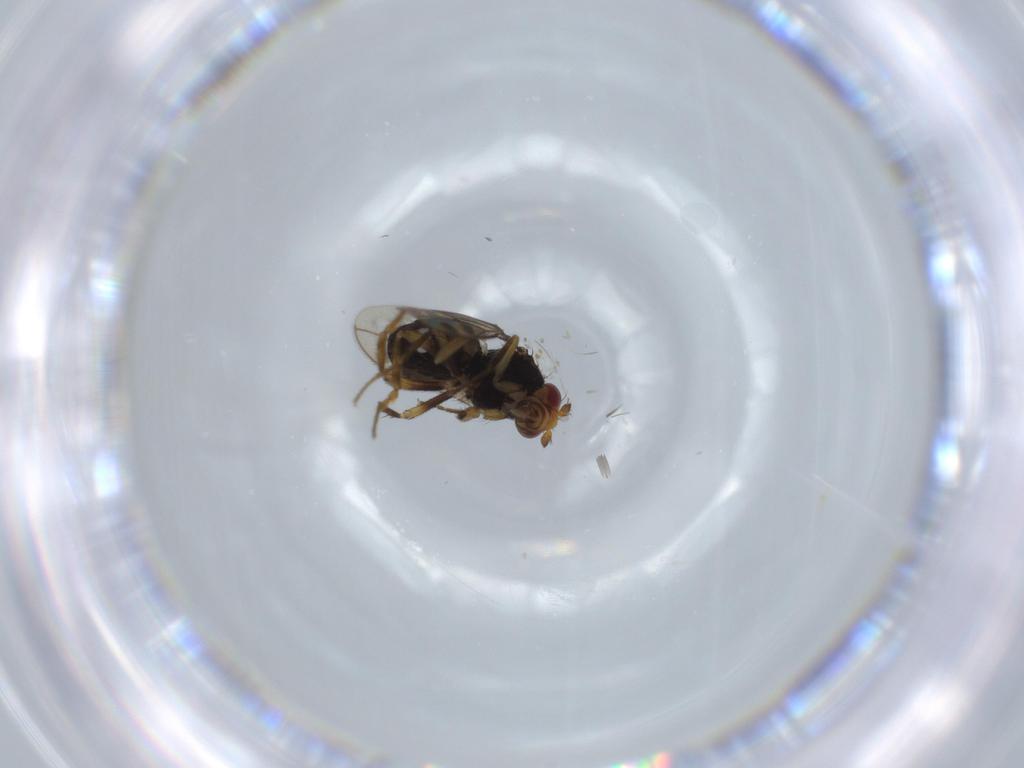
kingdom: Animalia
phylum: Arthropoda
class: Insecta
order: Diptera
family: Sphaeroceridae
